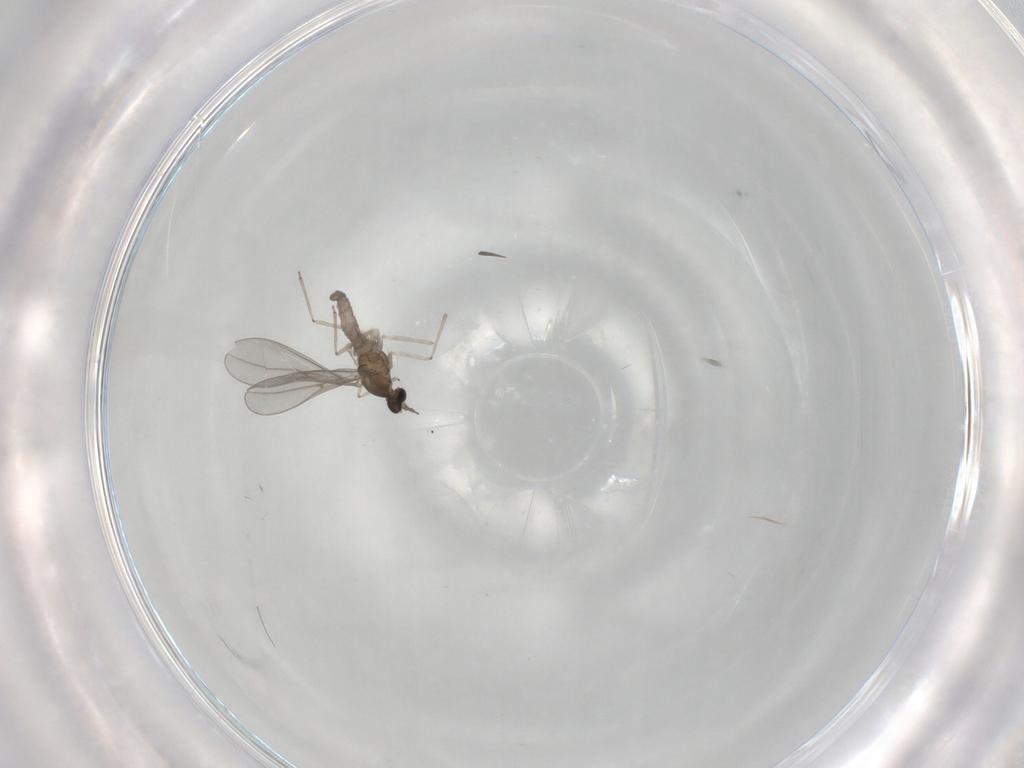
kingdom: Animalia
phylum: Arthropoda
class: Insecta
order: Diptera
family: Cecidomyiidae
